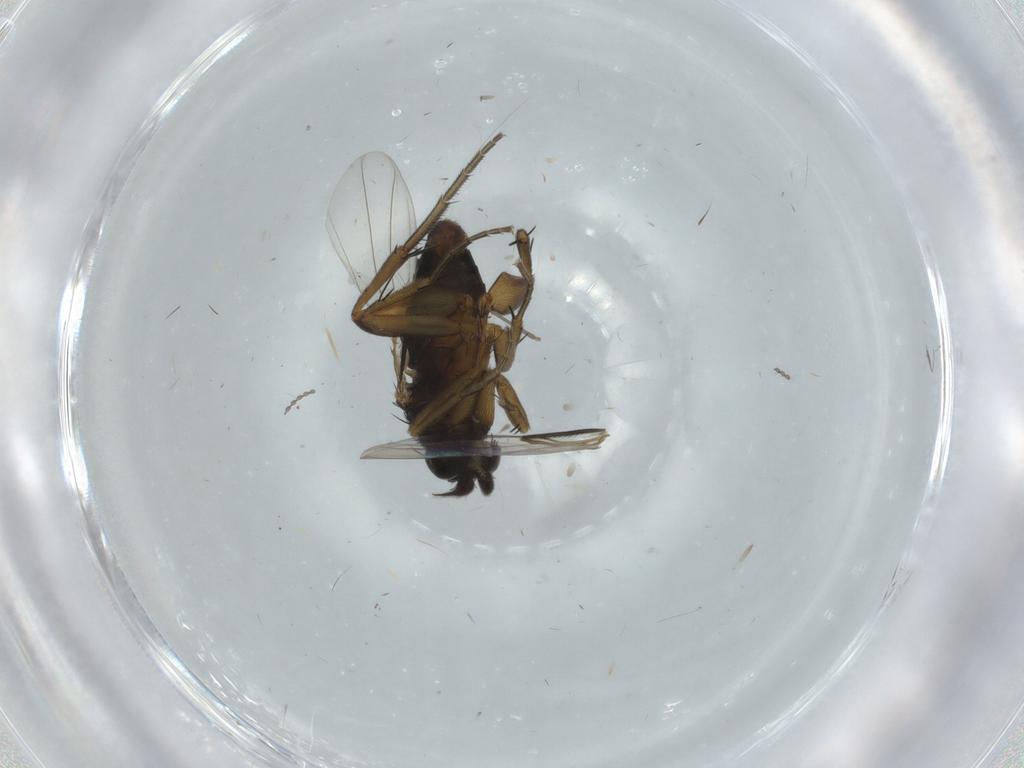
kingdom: Animalia
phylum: Arthropoda
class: Insecta
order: Diptera
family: Phoridae
